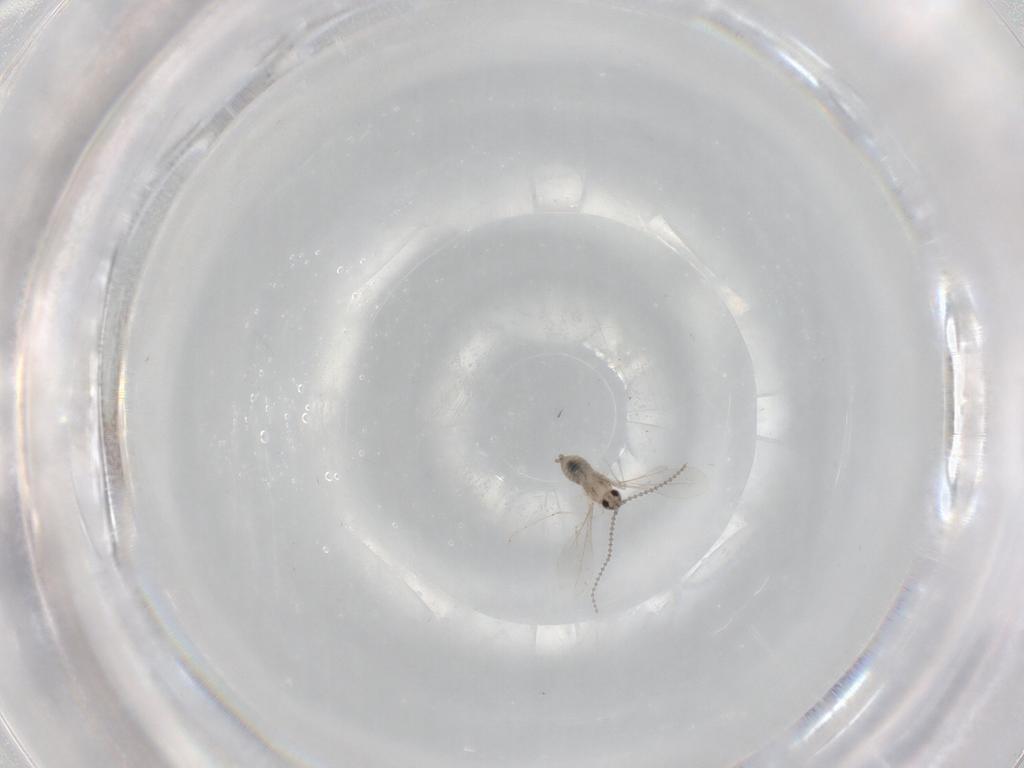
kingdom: Animalia
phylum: Arthropoda
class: Insecta
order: Diptera
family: Cecidomyiidae
